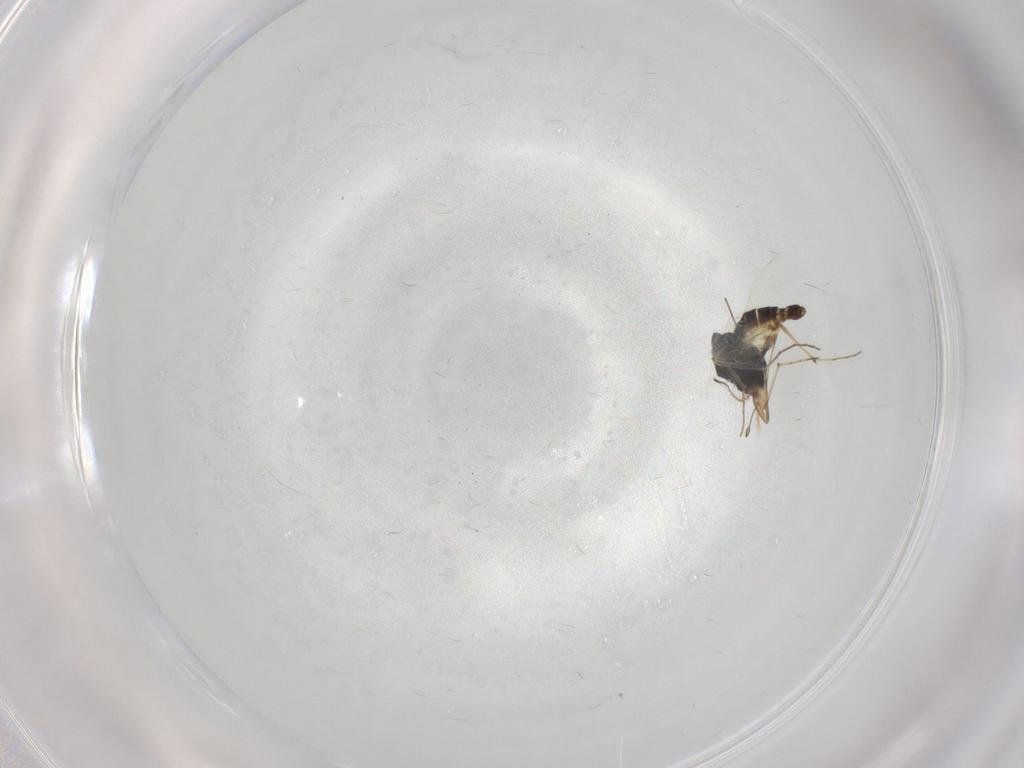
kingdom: Animalia
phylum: Arthropoda
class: Insecta
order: Diptera
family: Chironomidae
